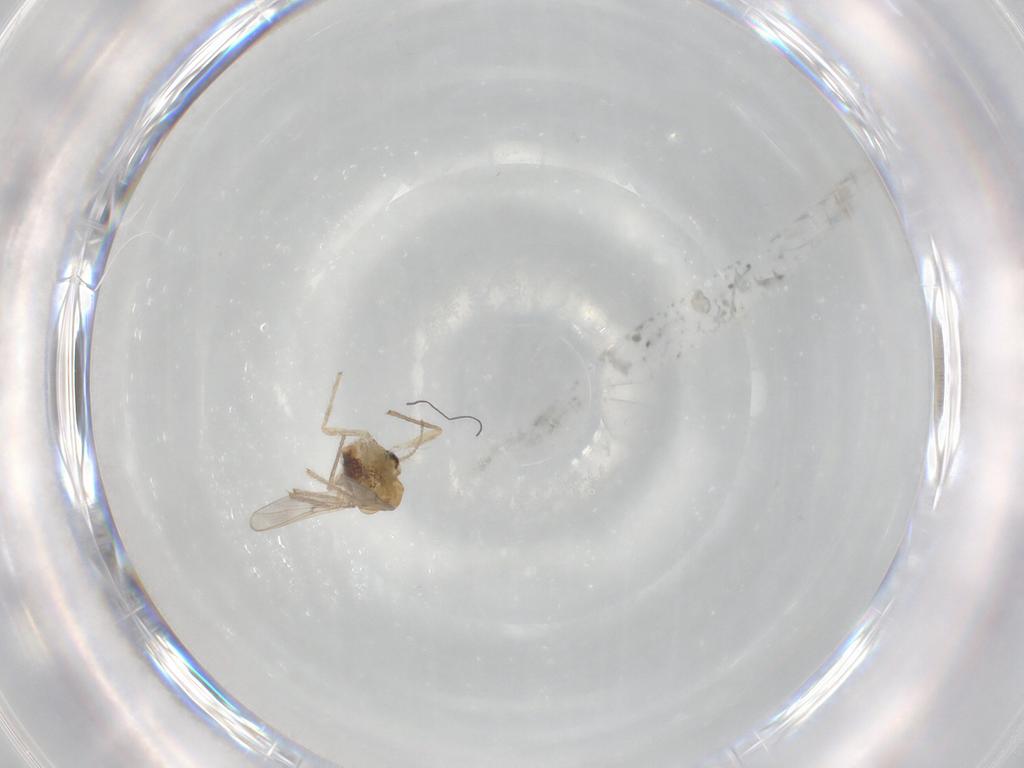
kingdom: Animalia
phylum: Arthropoda
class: Insecta
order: Diptera
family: Chironomidae
